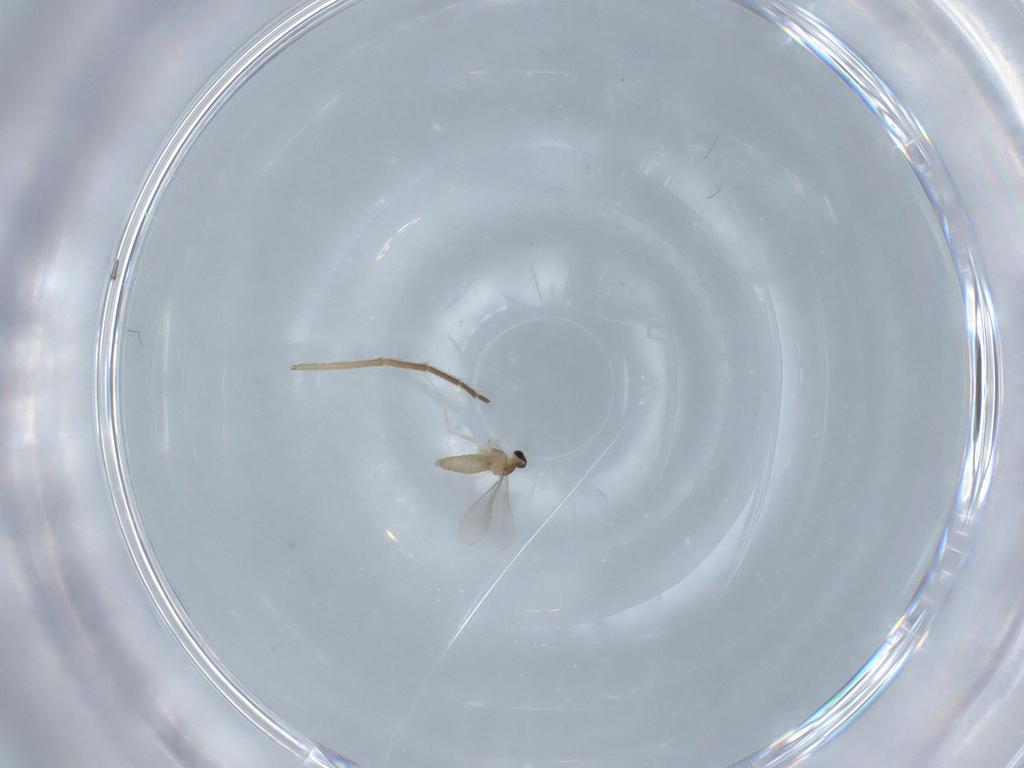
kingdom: Animalia
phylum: Arthropoda
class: Insecta
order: Diptera
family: Cecidomyiidae
